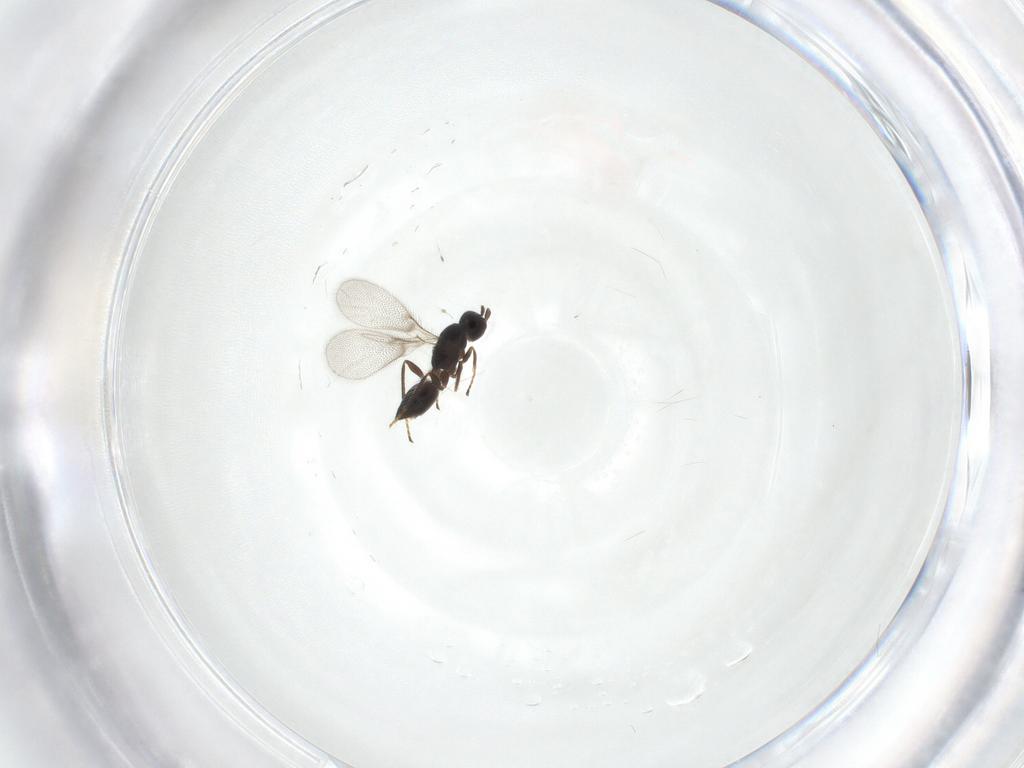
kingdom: Animalia
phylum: Arthropoda
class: Insecta
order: Hymenoptera
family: Mymaridae
